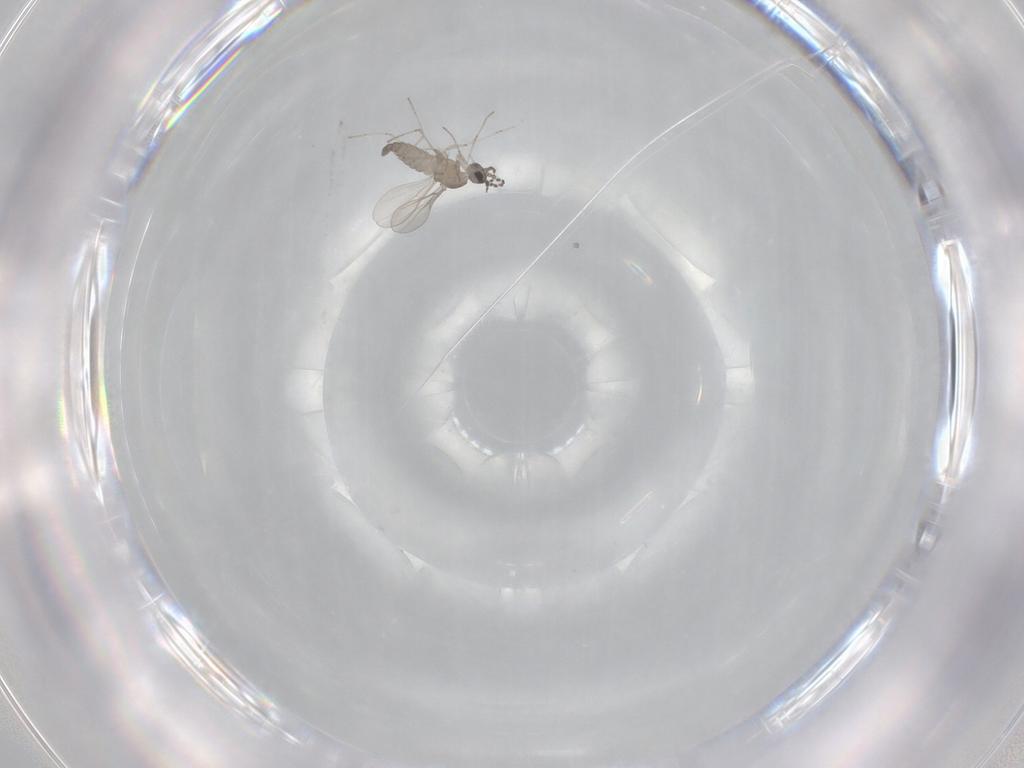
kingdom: Animalia
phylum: Arthropoda
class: Insecta
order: Diptera
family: Cecidomyiidae
